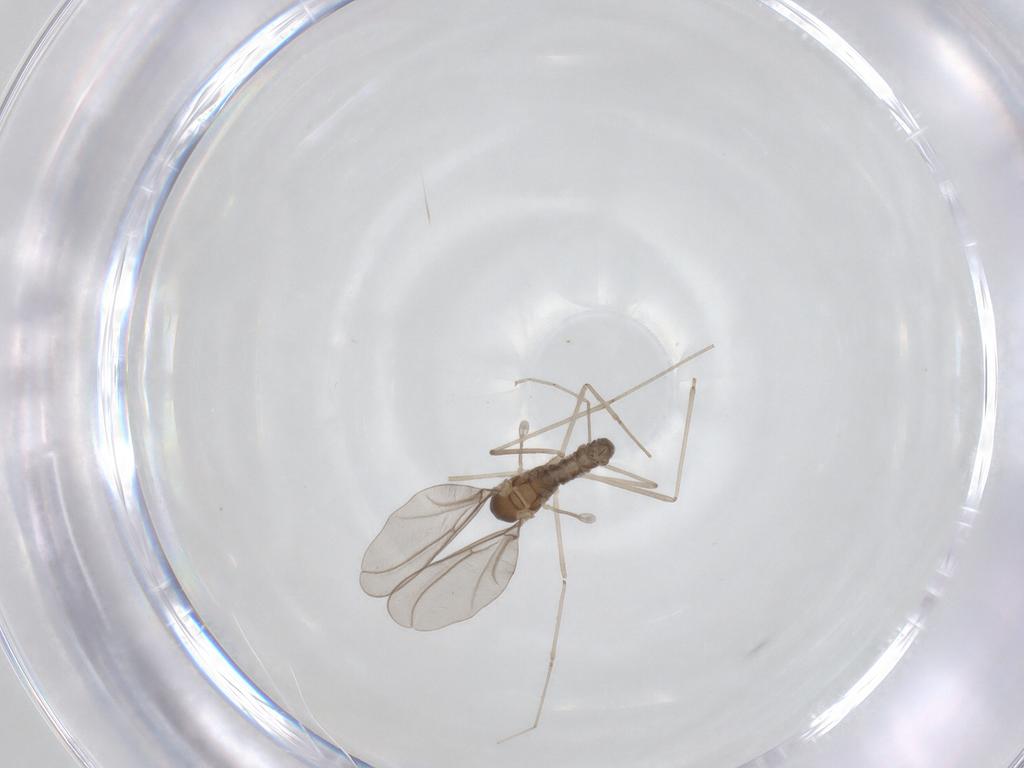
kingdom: Animalia
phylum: Arthropoda
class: Insecta
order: Diptera
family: Cecidomyiidae
